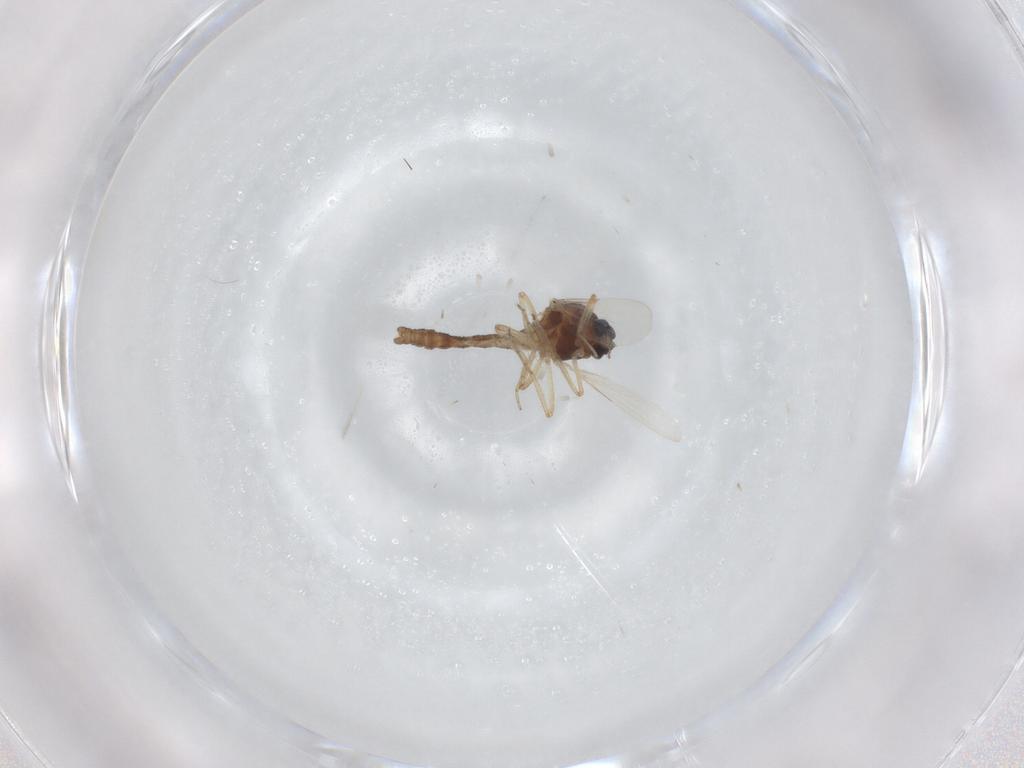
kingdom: Animalia
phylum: Arthropoda
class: Insecta
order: Diptera
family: Ceratopogonidae
